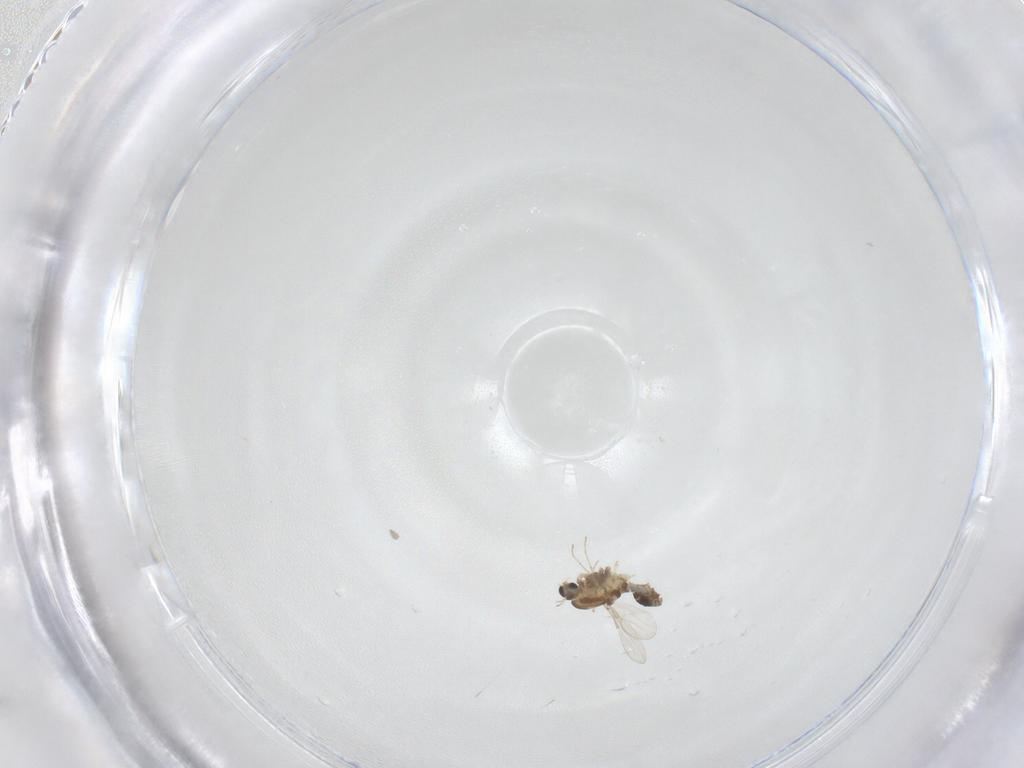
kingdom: Animalia
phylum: Arthropoda
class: Insecta
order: Diptera
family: Chironomidae
